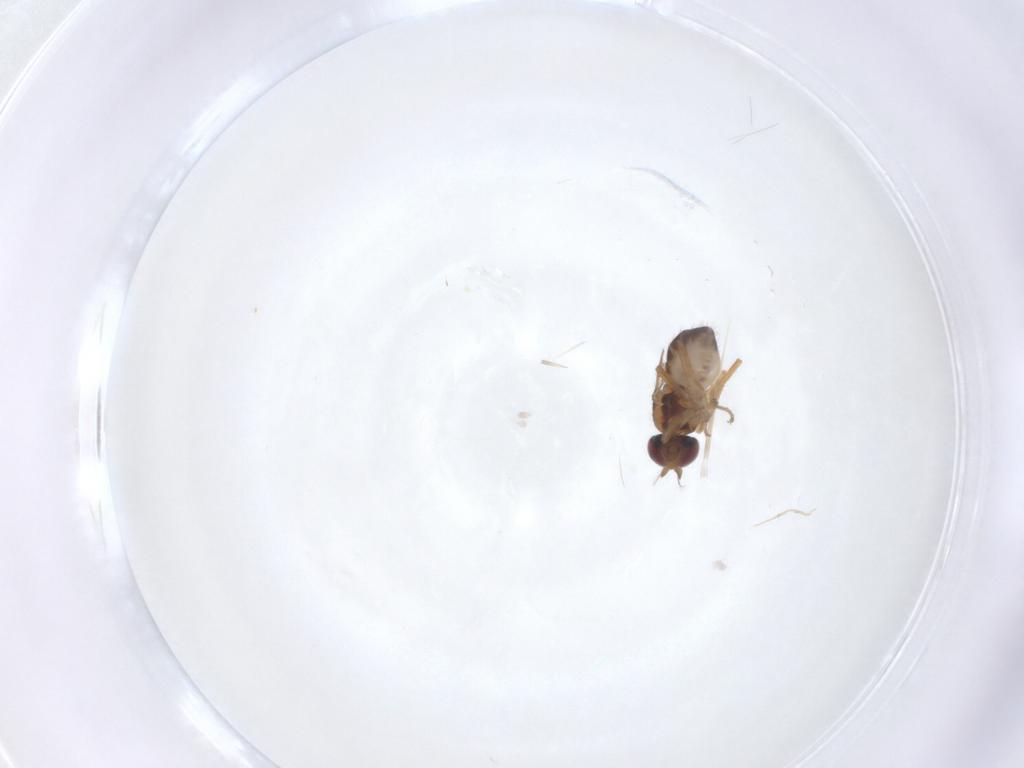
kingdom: Animalia
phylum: Arthropoda
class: Insecta
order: Diptera
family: Ephydridae
